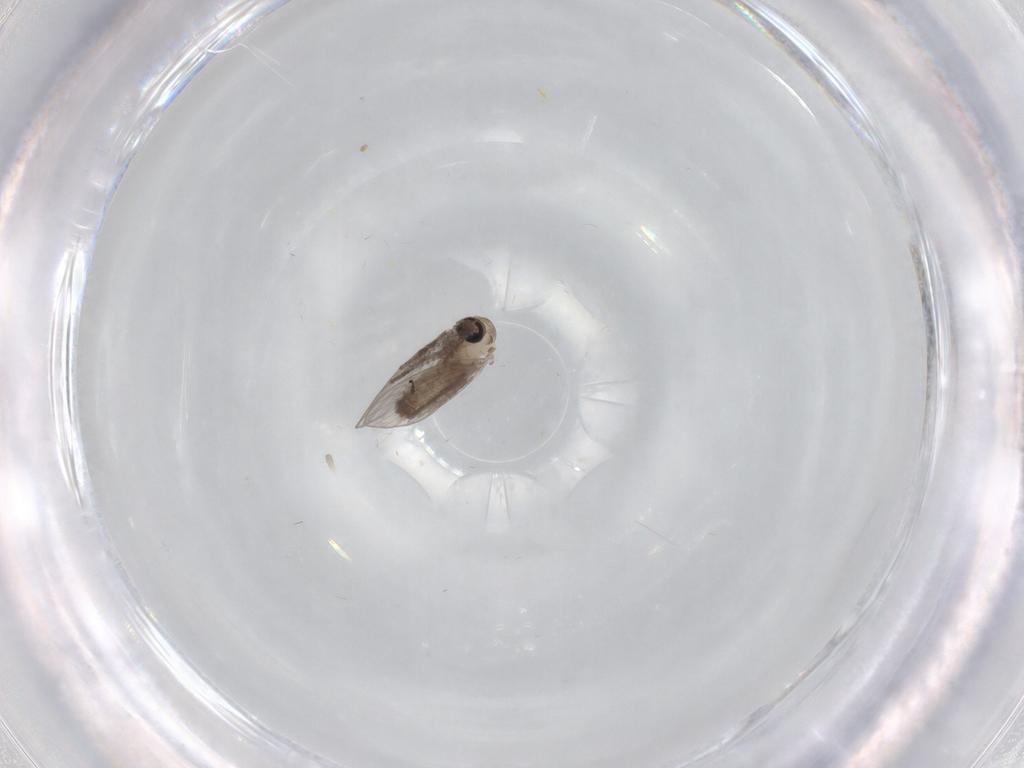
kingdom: Animalia
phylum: Arthropoda
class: Insecta
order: Diptera
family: Psychodidae
